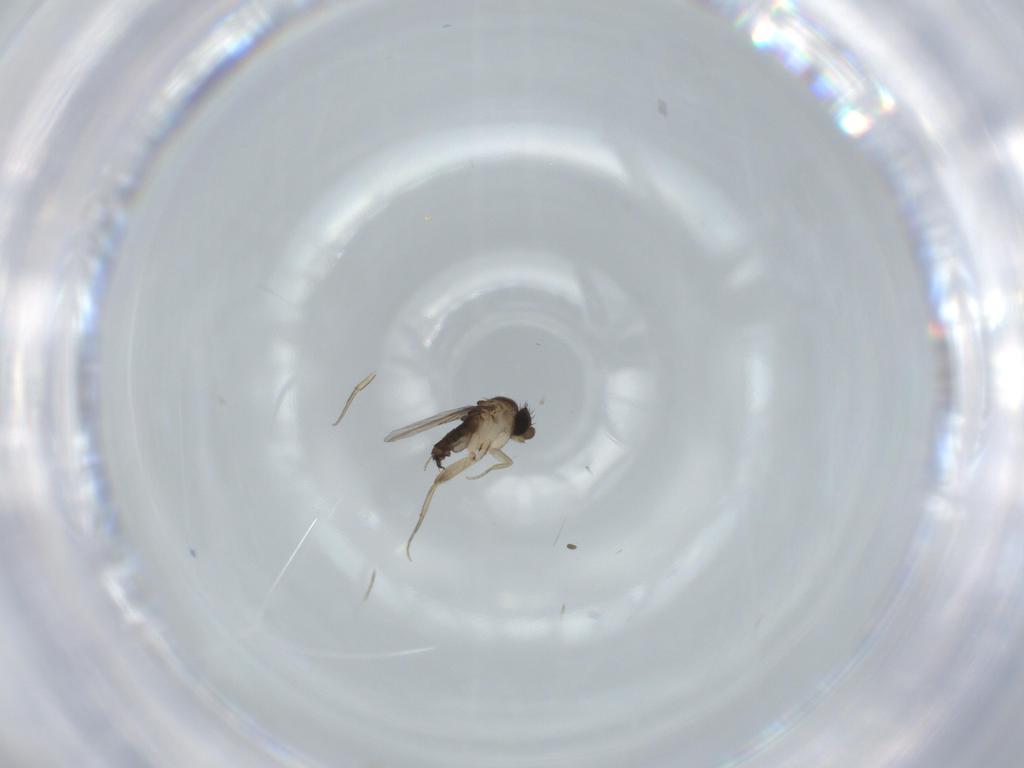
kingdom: Animalia
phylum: Arthropoda
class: Insecta
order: Diptera
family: Phoridae
